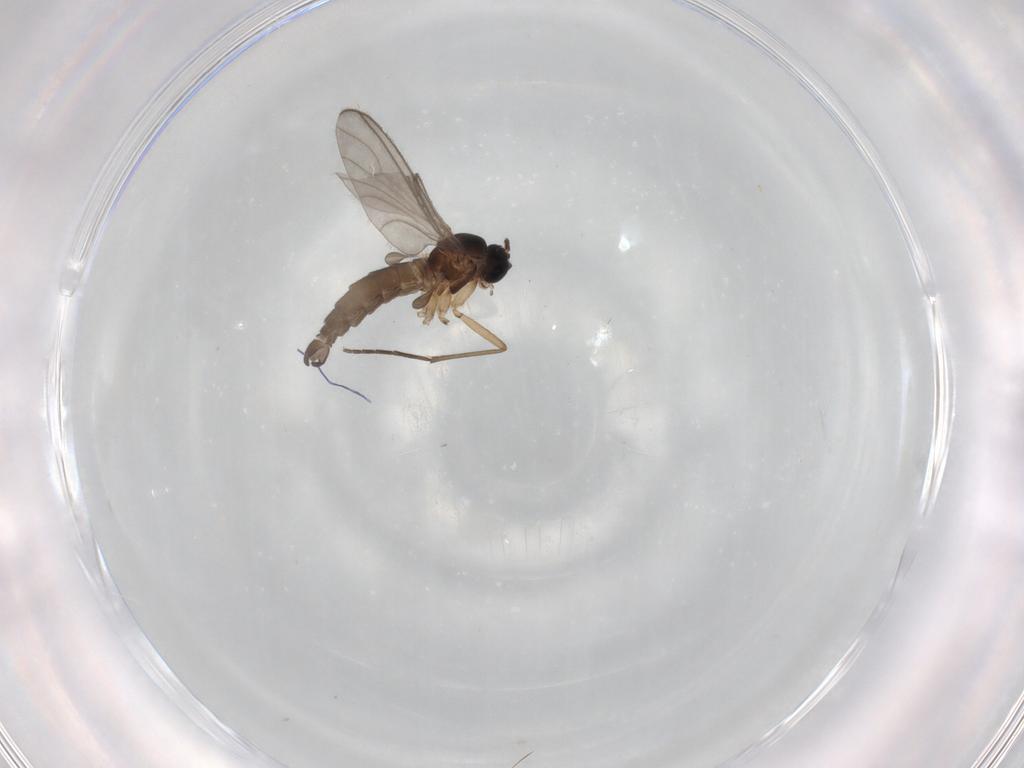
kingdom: Animalia
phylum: Arthropoda
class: Insecta
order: Diptera
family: Sciaridae
